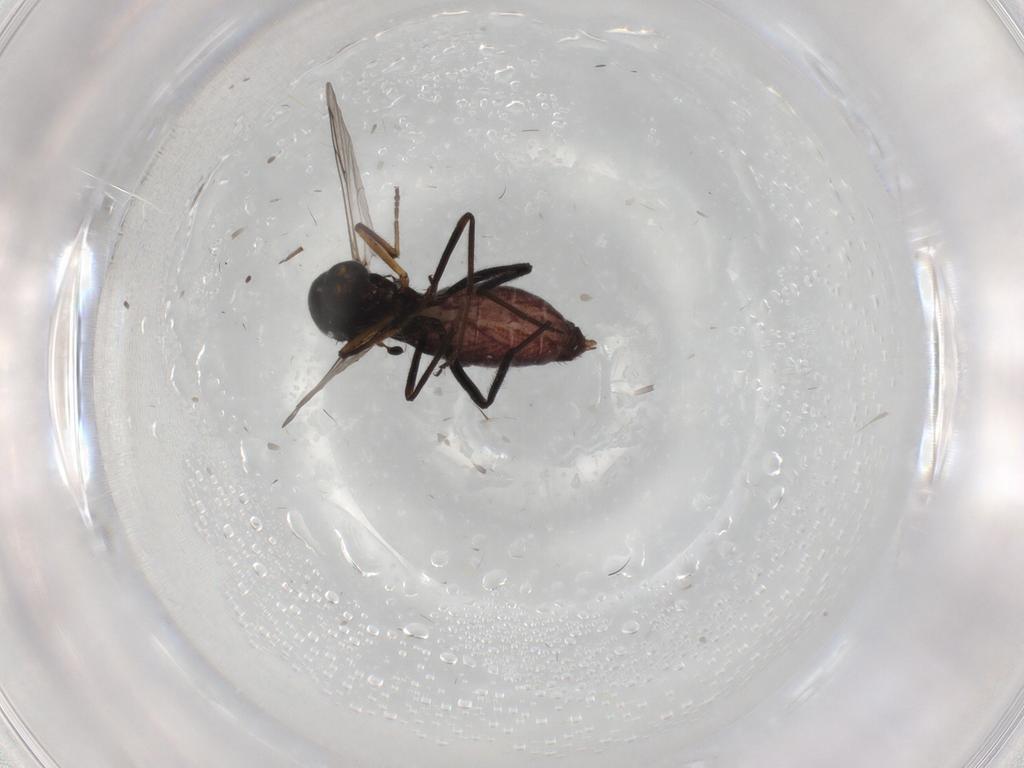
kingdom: Animalia
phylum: Arthropoda
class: Insecta
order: Diptera
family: Ceratopogonidae
